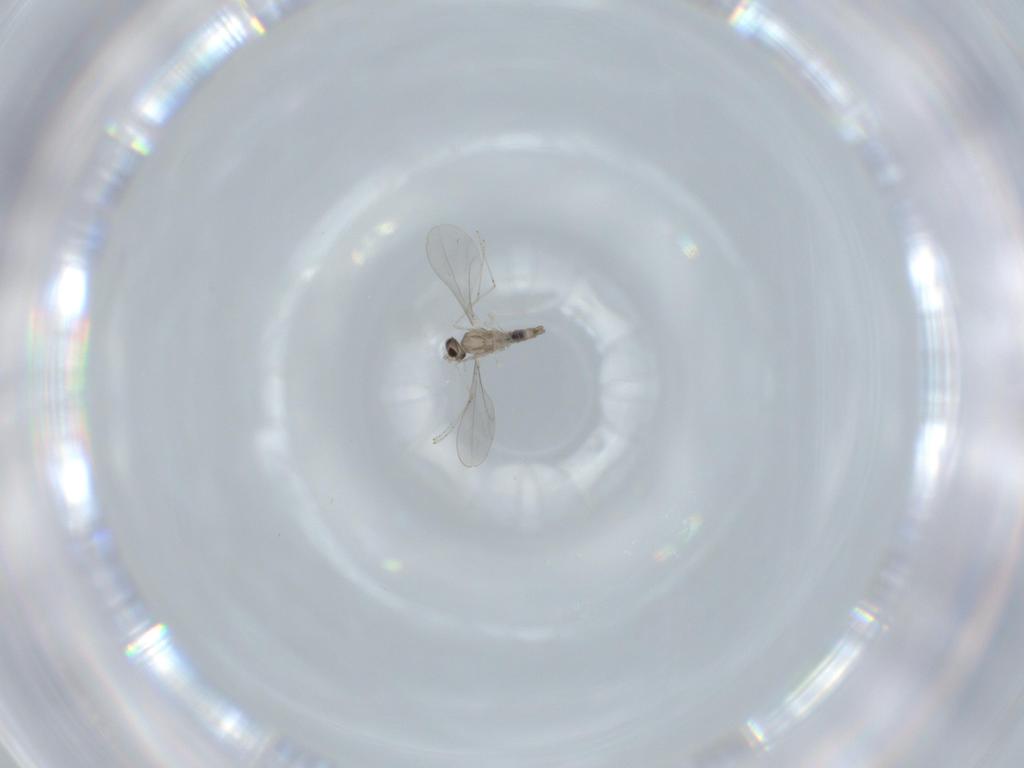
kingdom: Animalia
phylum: Arthropoda
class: Insecta
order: Diptera
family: Cecidomyiidae
